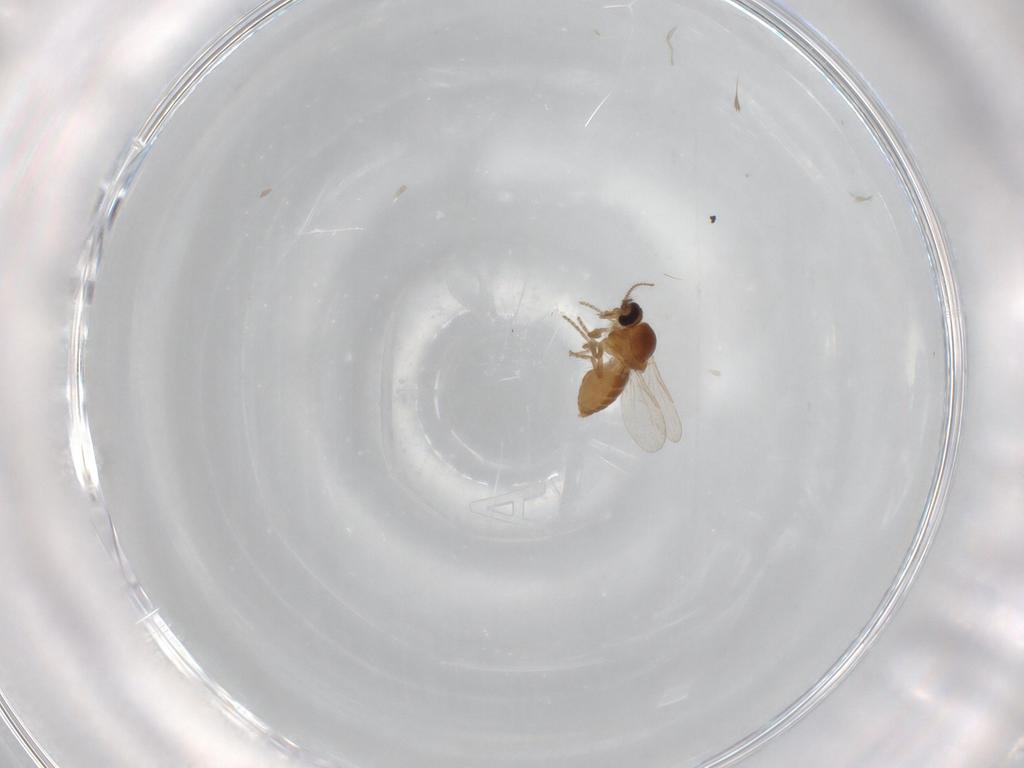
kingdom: Animalia
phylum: Arthropoda
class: Insecta
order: Diptera
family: Ceratopogonidae
